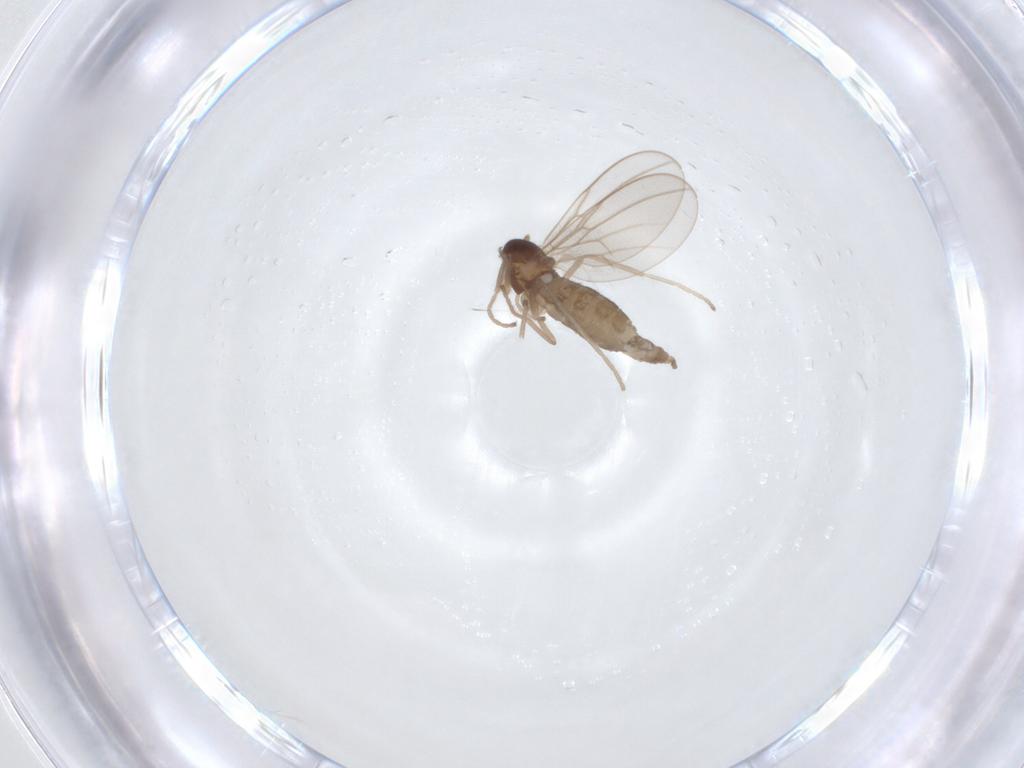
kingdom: Animalia
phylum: Arthropoda
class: Insecta
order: Diptera
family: Cecidomyiidae
